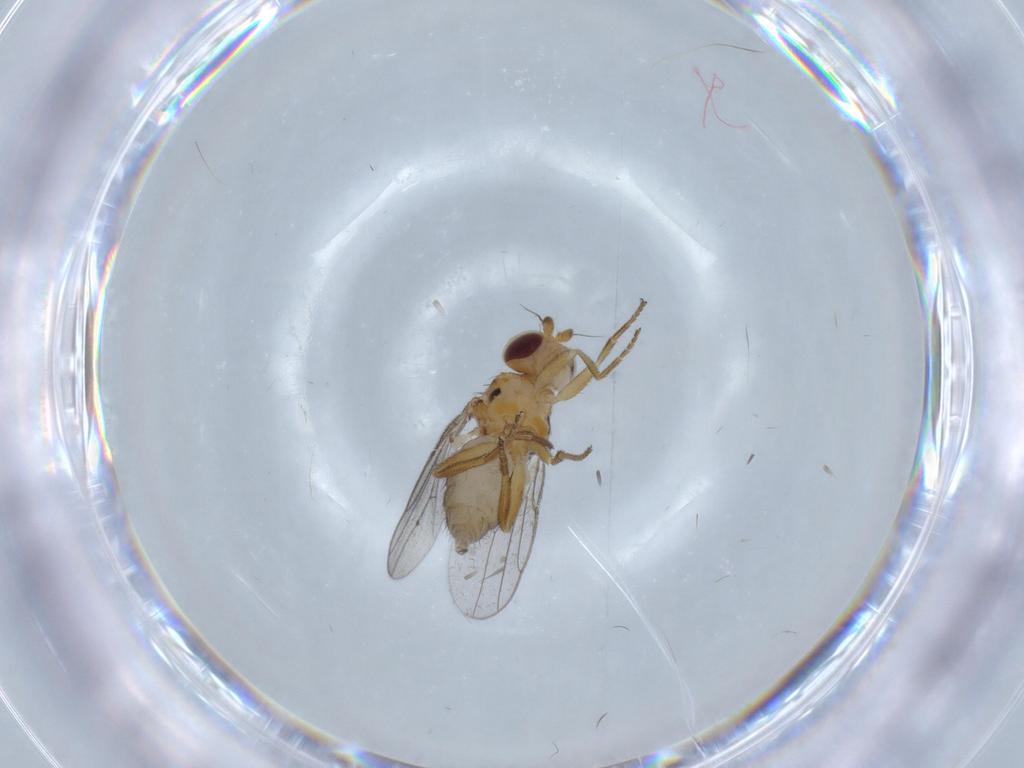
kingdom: Animalia
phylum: Arthropoda
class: Insecta
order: Diptera
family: Chloropidae
